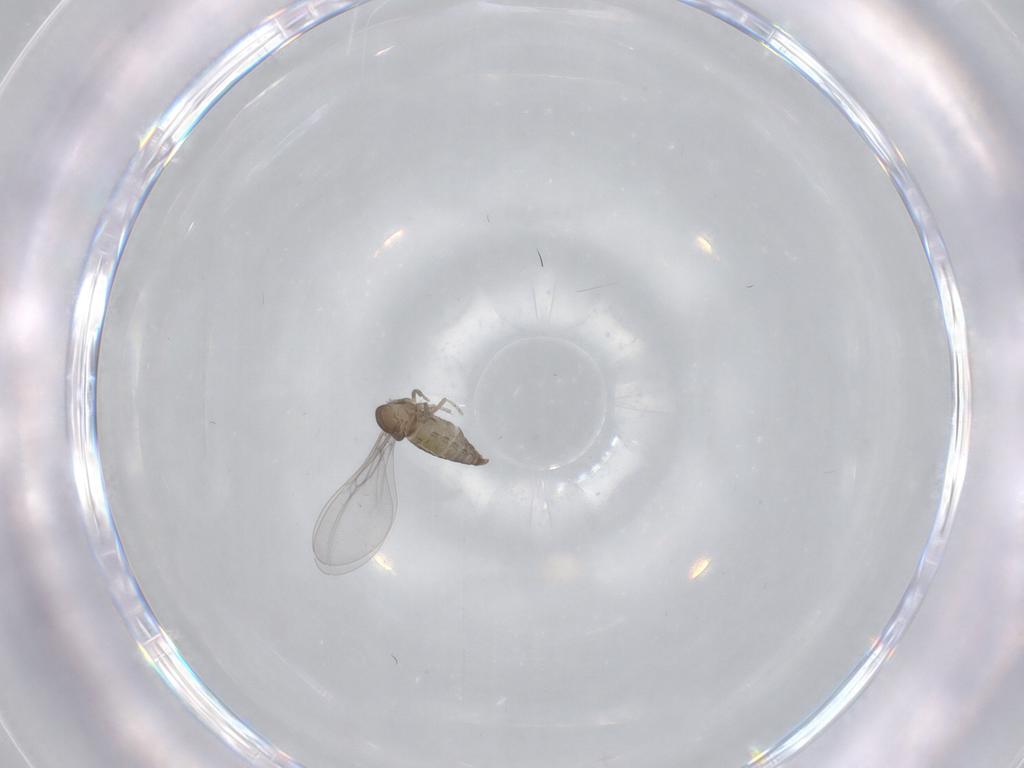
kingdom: Animalia
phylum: Arthropoda
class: Insecta
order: Diptera
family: Cecidomyiidae
